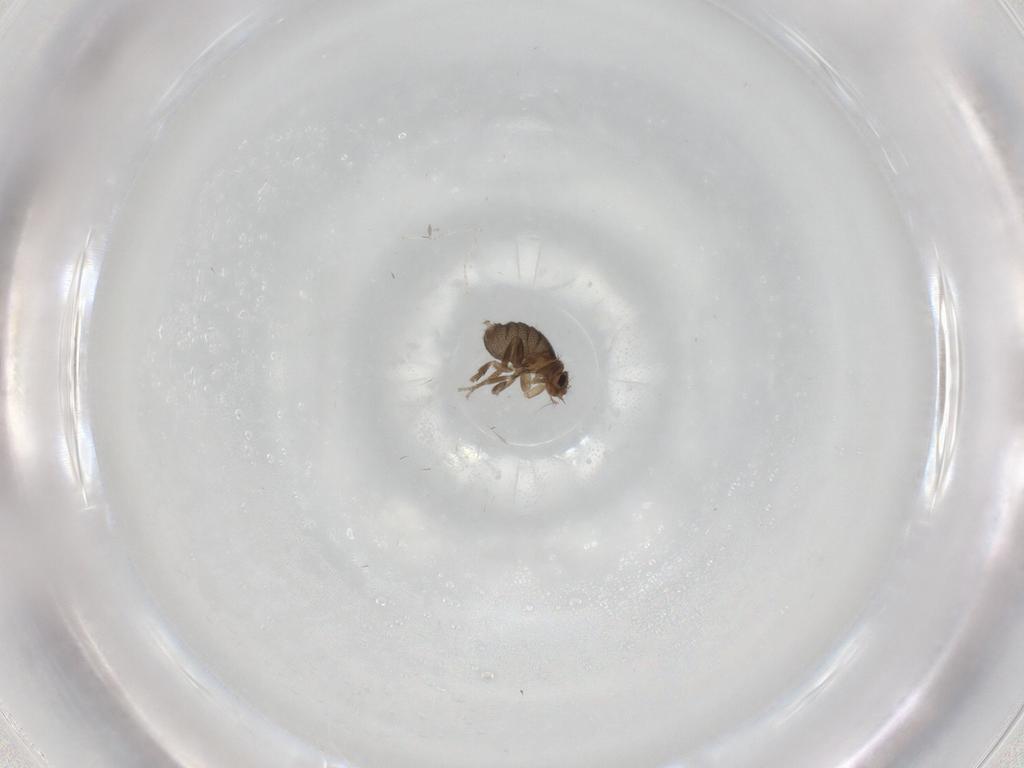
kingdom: Animalia
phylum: Arthropoda
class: Insecta
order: Diptera
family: Phoridae
